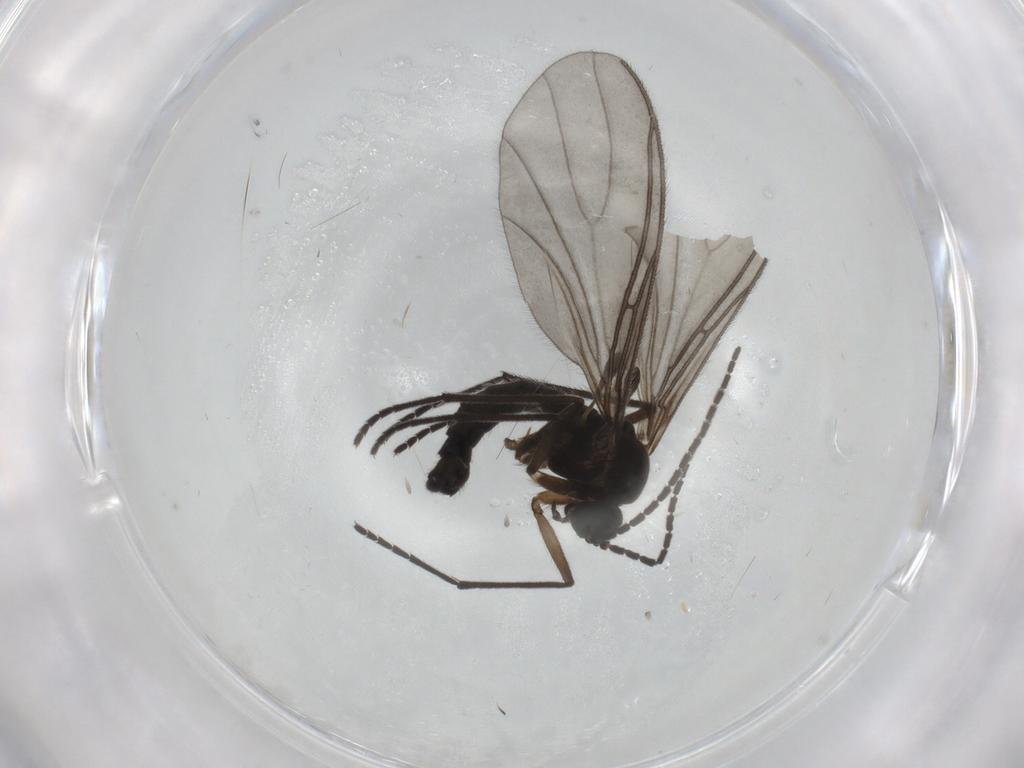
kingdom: Animalia
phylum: Arthropoda
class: Insecta
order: Diptera
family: Sciaridae
